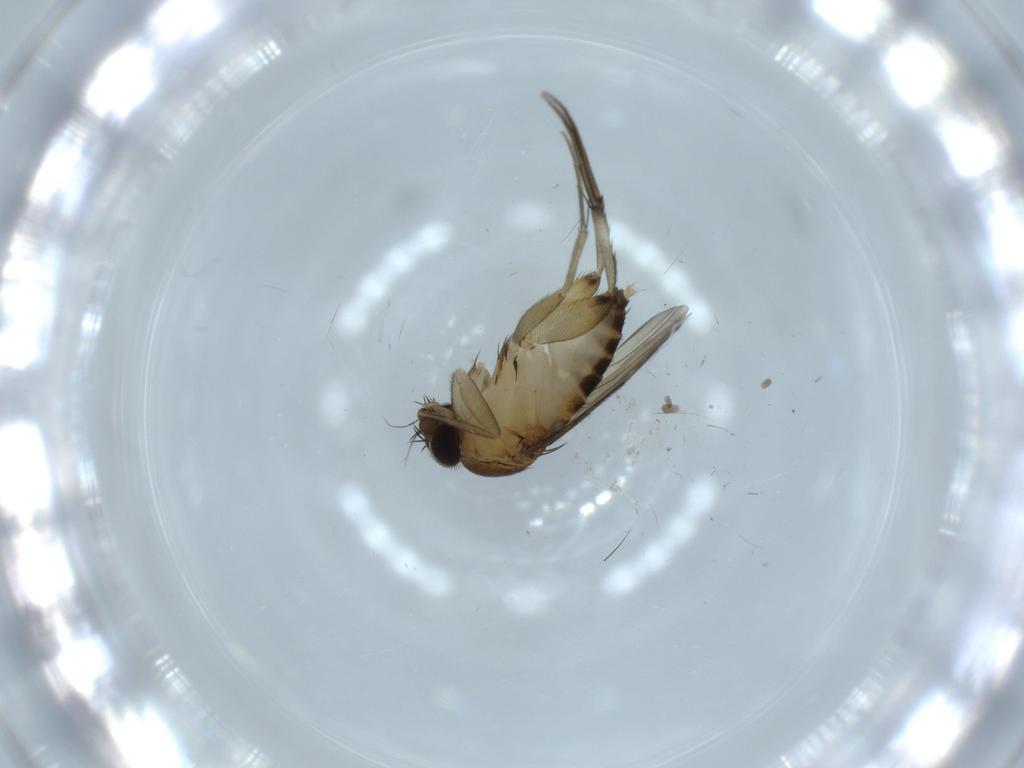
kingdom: Animalia
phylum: Arthropoda
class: Insecta
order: Diptera
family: Phoridae
